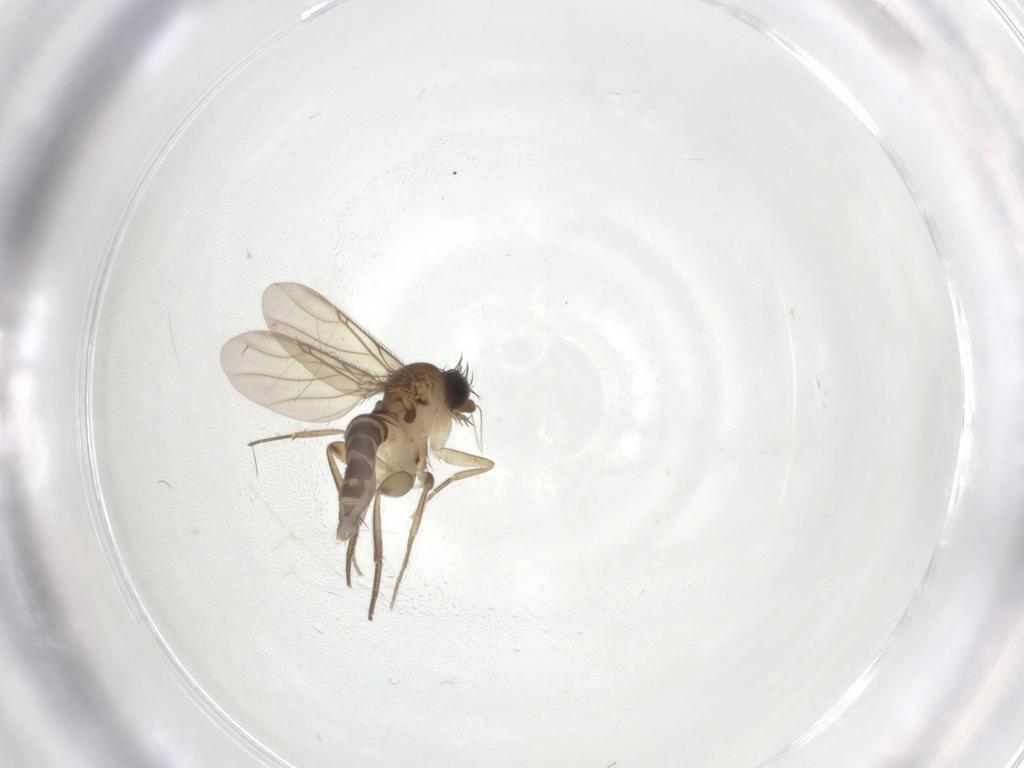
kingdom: Animalia
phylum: Arthropoda
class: Insecta
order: Diptera
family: Phoridae
